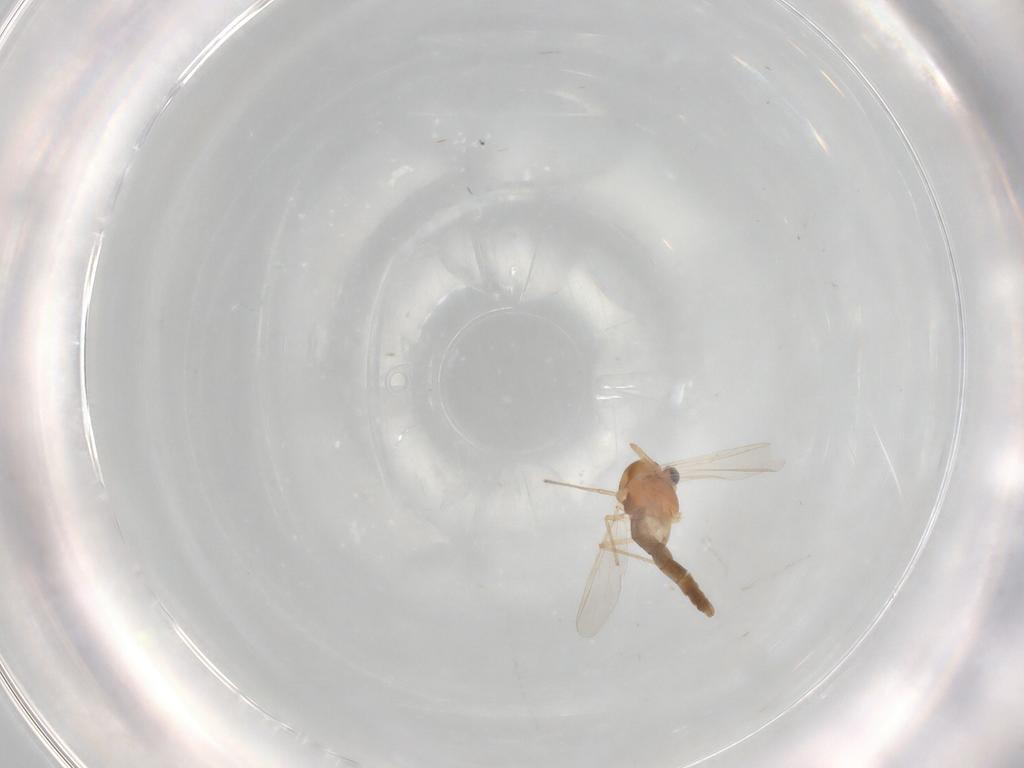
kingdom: Animalia
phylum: Arthropoda
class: Insecta
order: Diptera
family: Chironomidae
